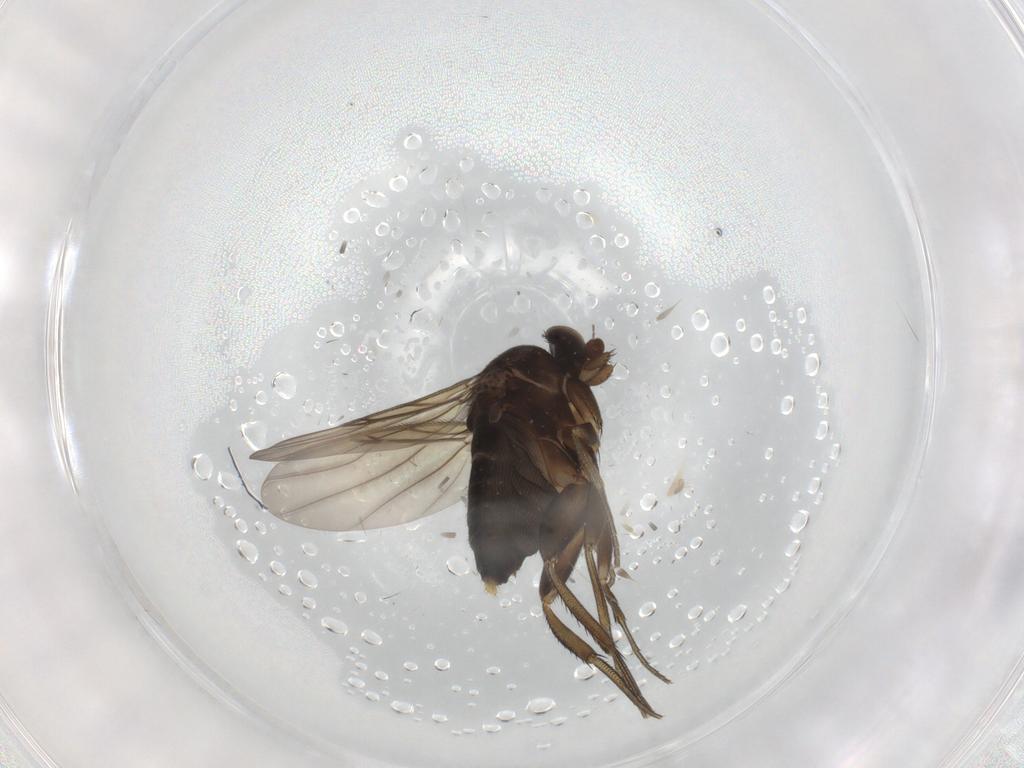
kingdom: Animalia
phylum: Arthropoda
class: Insecta
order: Diptera
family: Phoridae
